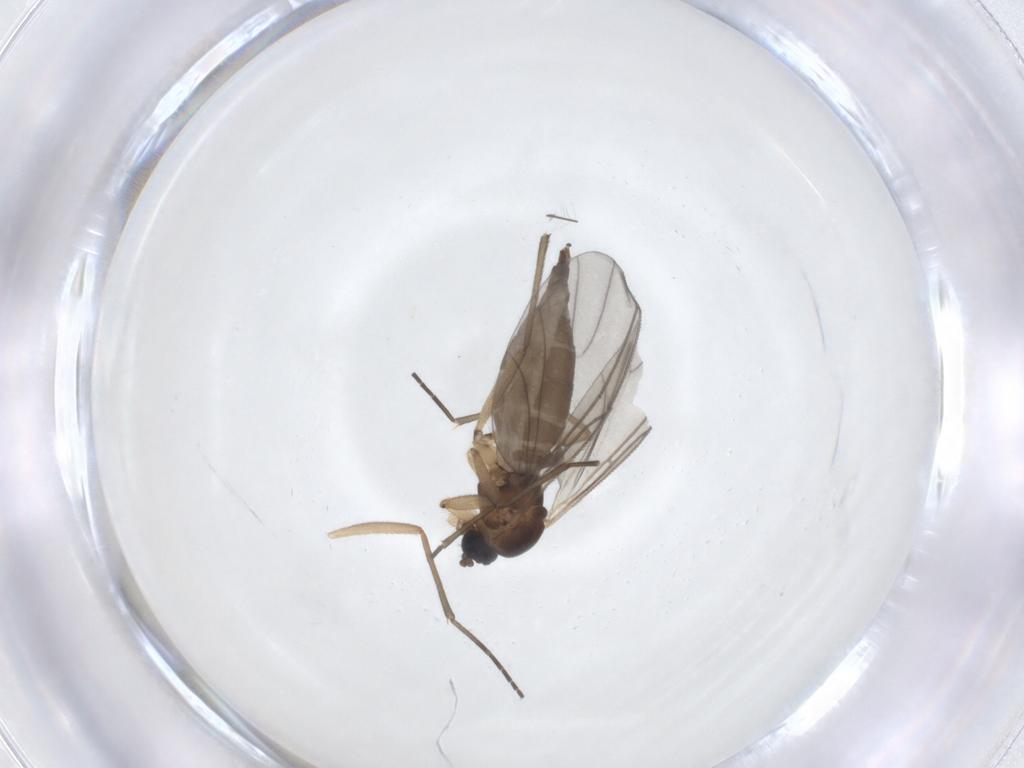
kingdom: Animalia
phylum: Arthropoda
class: Insecta
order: Diptera
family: Sciaridae
